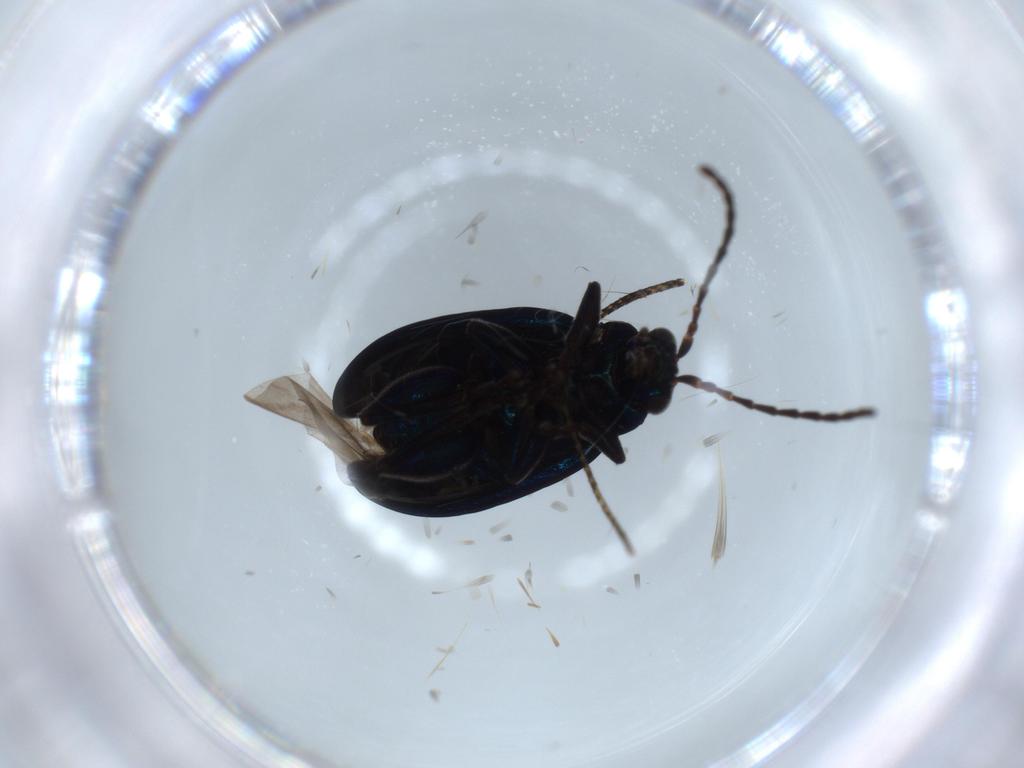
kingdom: Animalia
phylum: Arthropoda
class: Insecta
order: Coleoptera
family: Chrysomelidae
